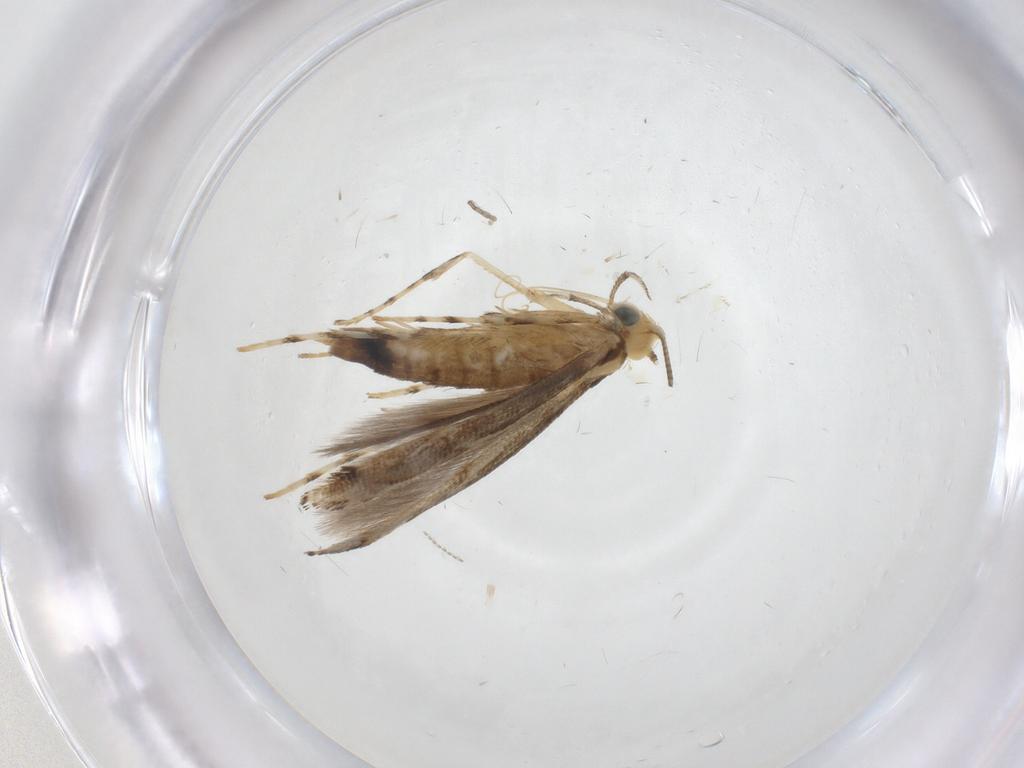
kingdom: Animalia
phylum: Arthropoda
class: Insecta
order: Lepidoptera
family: Gracillariidae
